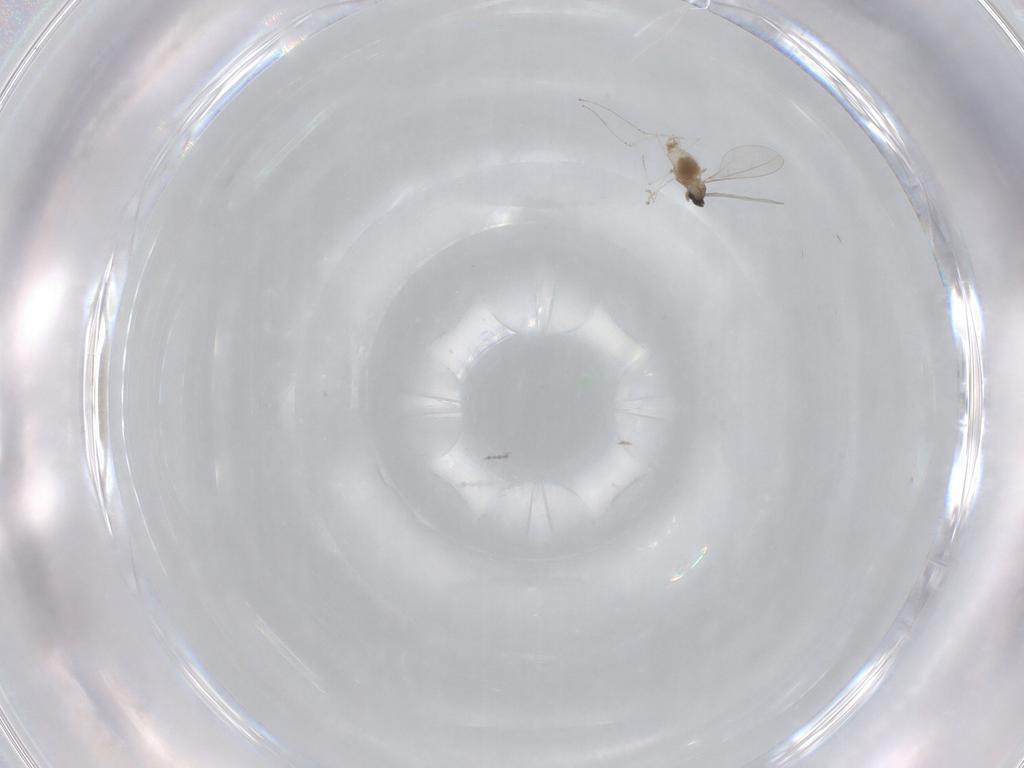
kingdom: Animalia
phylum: Arthropoda
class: Insecta
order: Diptera
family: Cecidomyiidae
